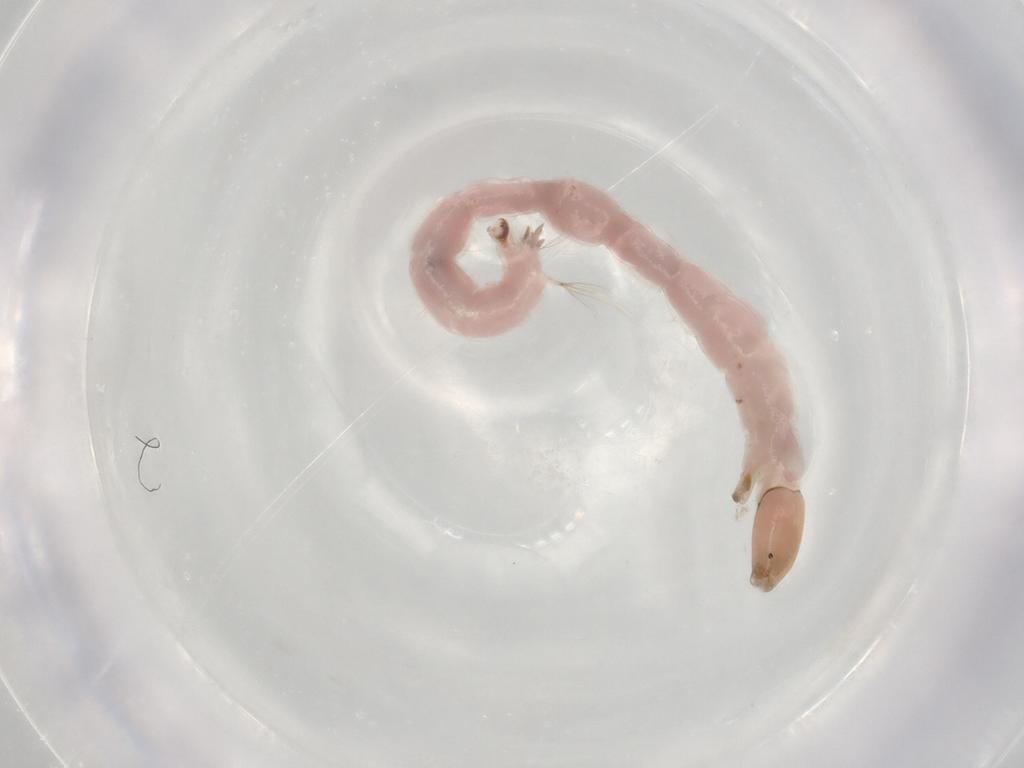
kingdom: Animalia
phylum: Arthropoda
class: Insecta
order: Diptera
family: Chironomidae
